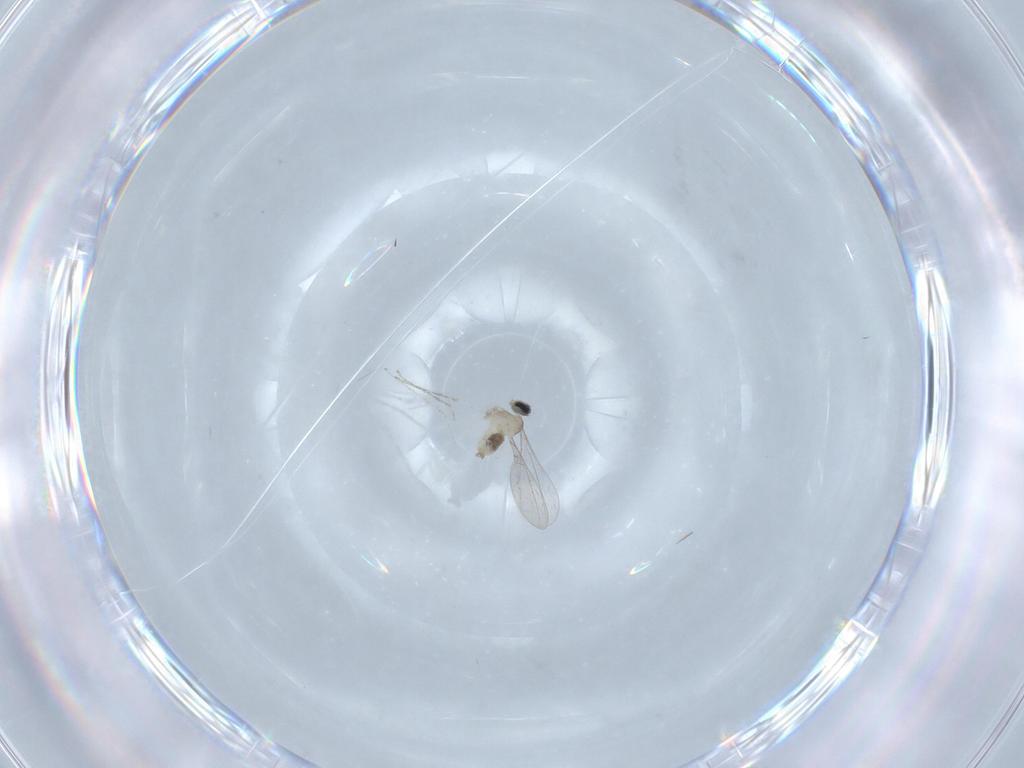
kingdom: Animalia
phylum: Arthropoda
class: Insecta
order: Diptera
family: Cecidomyiidae
